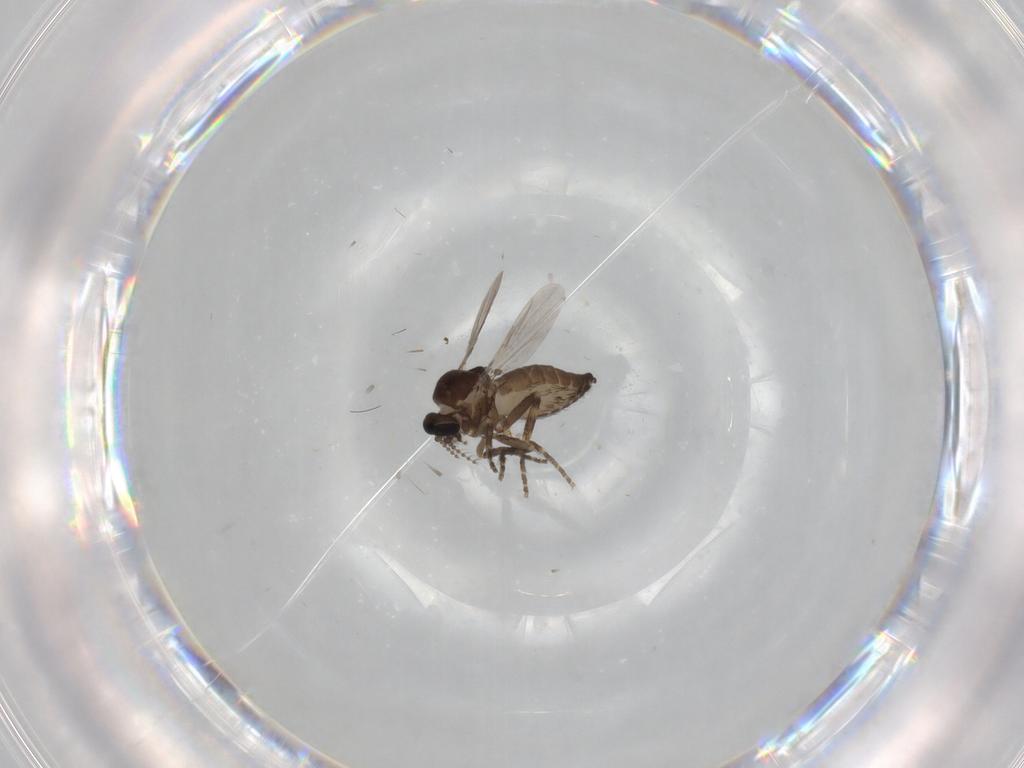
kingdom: Animalia
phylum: Arthropoda
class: Insecta
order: Diptera
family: Ceratopogonidae
